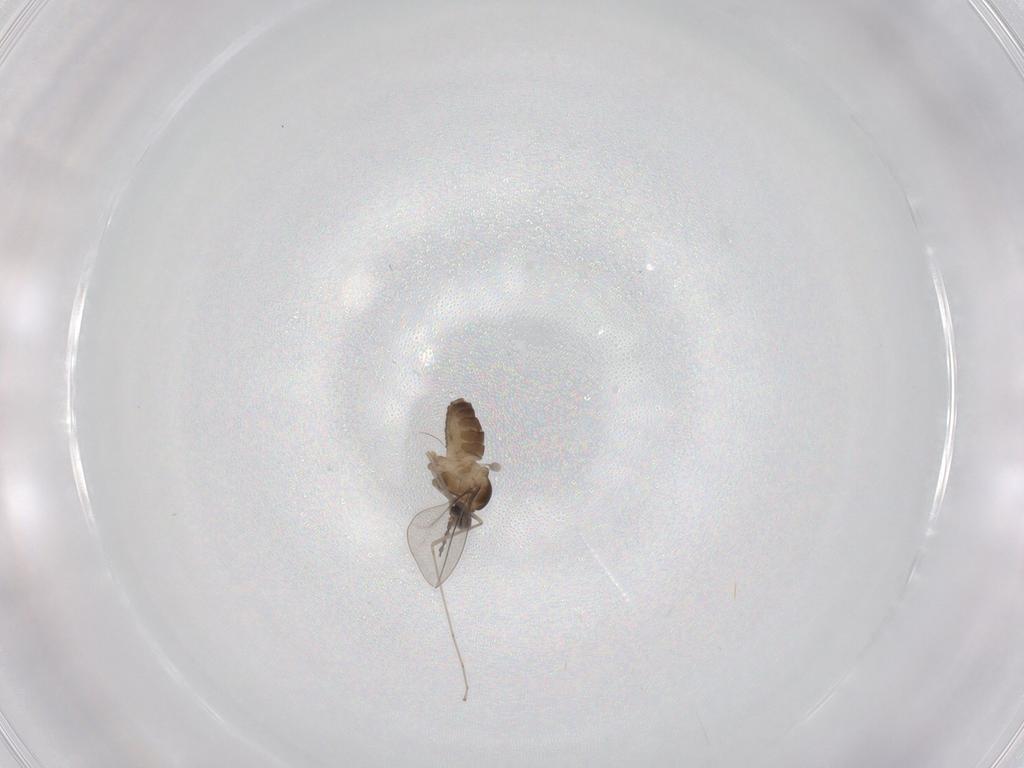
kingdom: Animalia
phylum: Arthropoda
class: Insecta
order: Diptera
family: Cecidomyiidae
